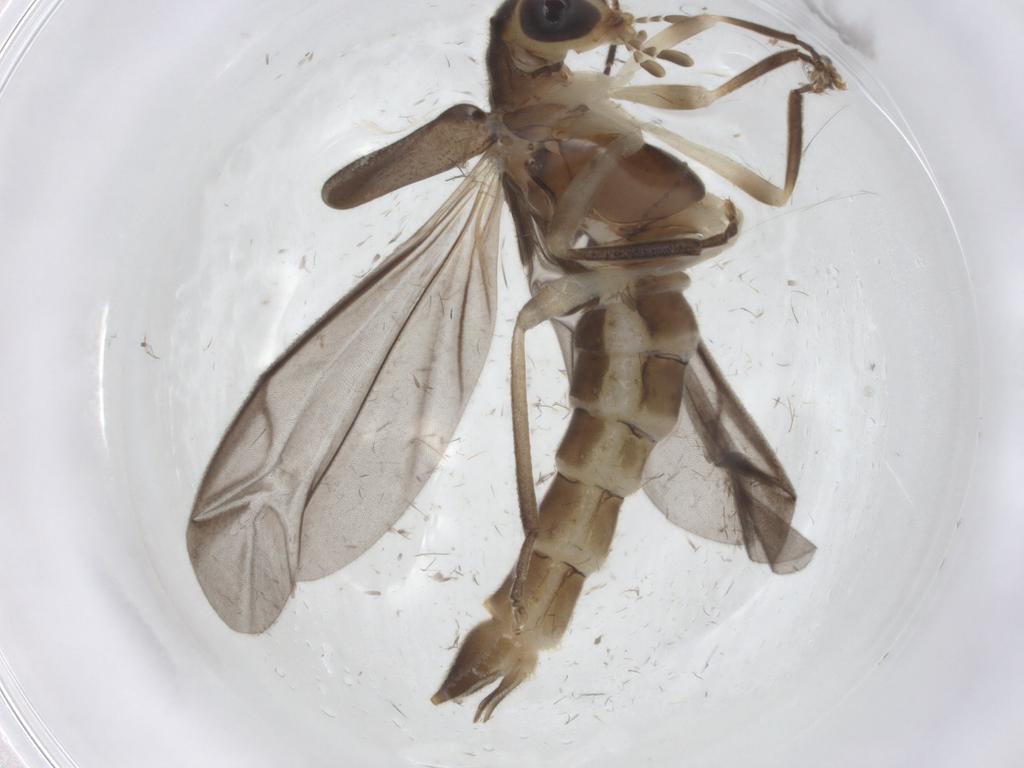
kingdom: Animalia
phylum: Arthropoda
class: Insecta
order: Coleoptera
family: Cantharidae
